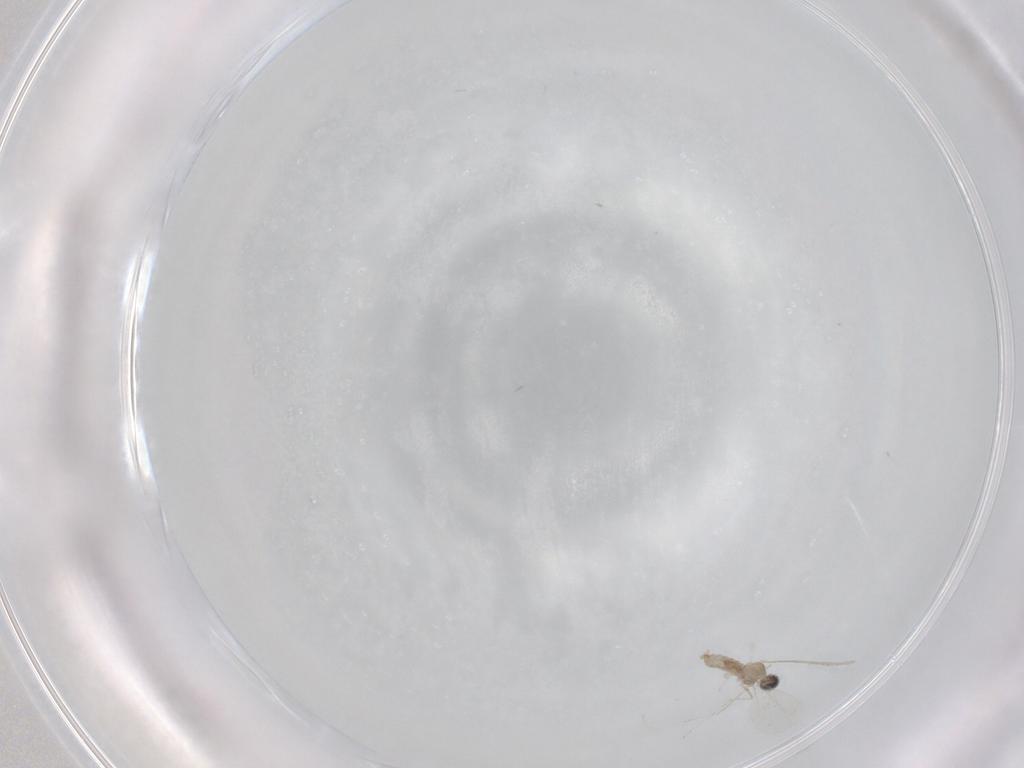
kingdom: Animalia
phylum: Arthropoda
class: Insecta
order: Diptera
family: Cecidomyiidae
